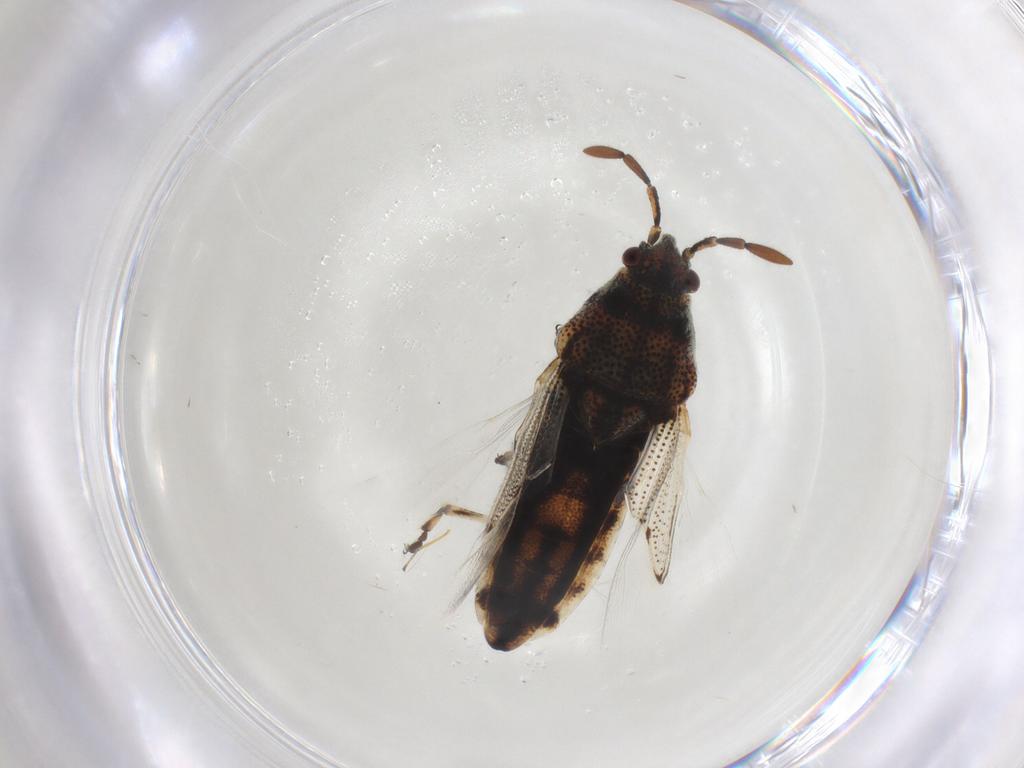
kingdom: Animalia
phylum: Arthropoda
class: Insecta
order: Hemiptera
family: Pachygronthidae
